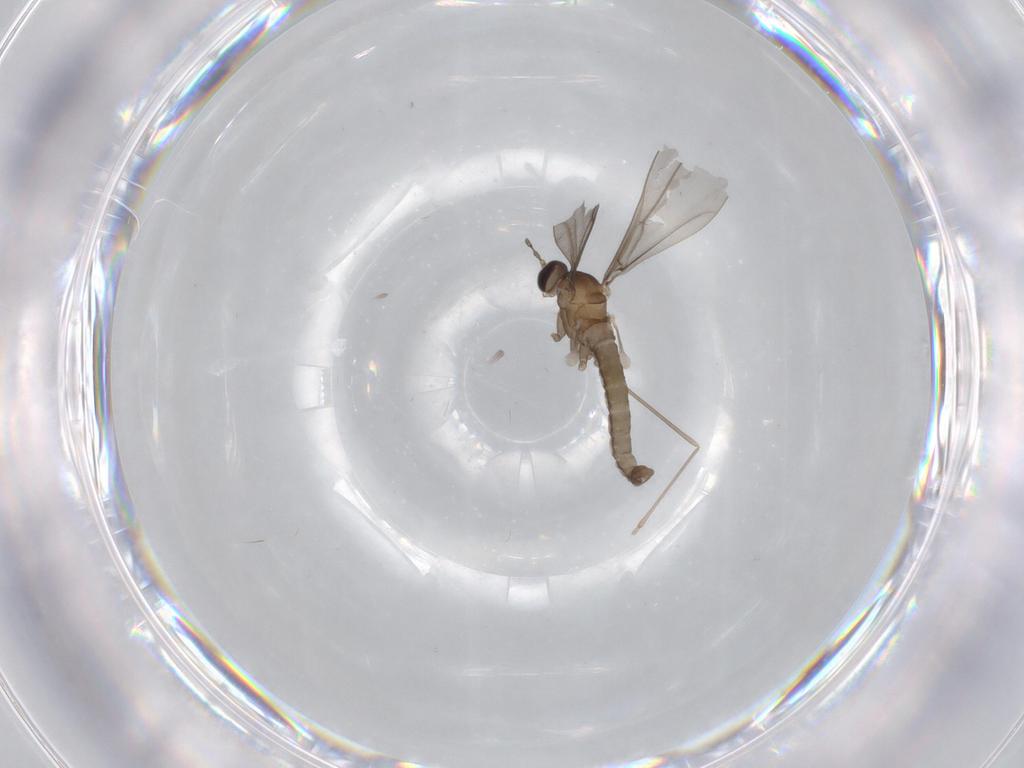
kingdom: Animalia
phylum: Arthropoda
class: Insecta
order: Diptera
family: Cecidomyiidae
